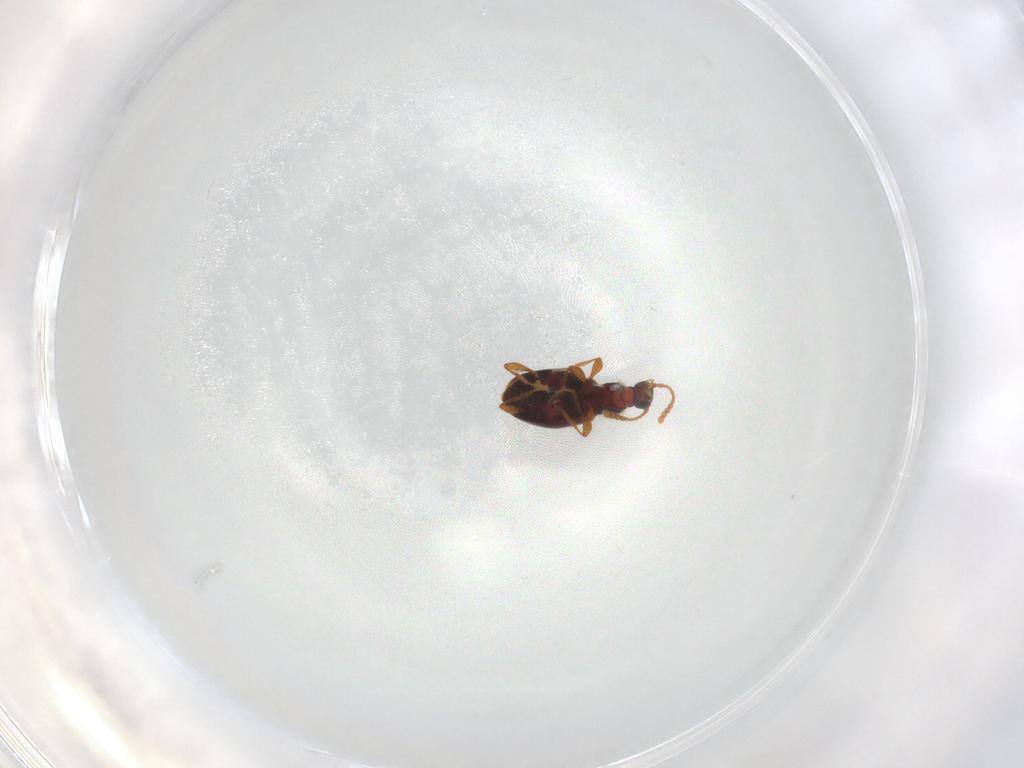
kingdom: Animalia
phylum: Arthropoda
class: Insecta
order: Coleoptera
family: Staphylinidae
